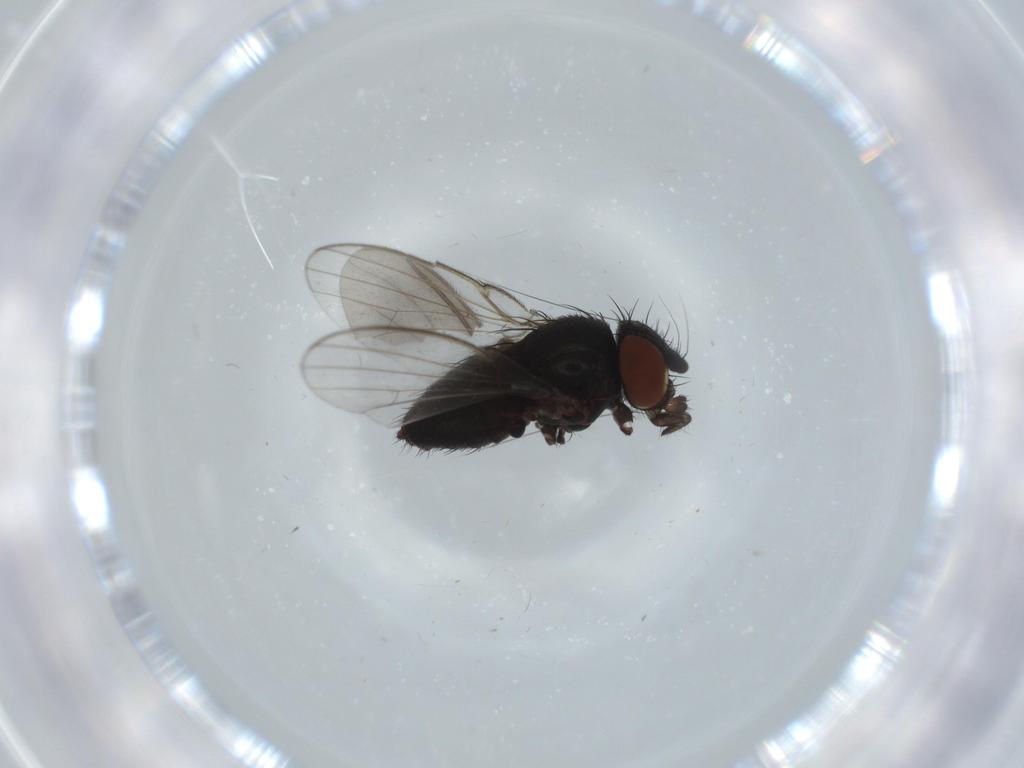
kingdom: Animalia
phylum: Arthropoda
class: Insecta
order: Diptera
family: Milichiidae
